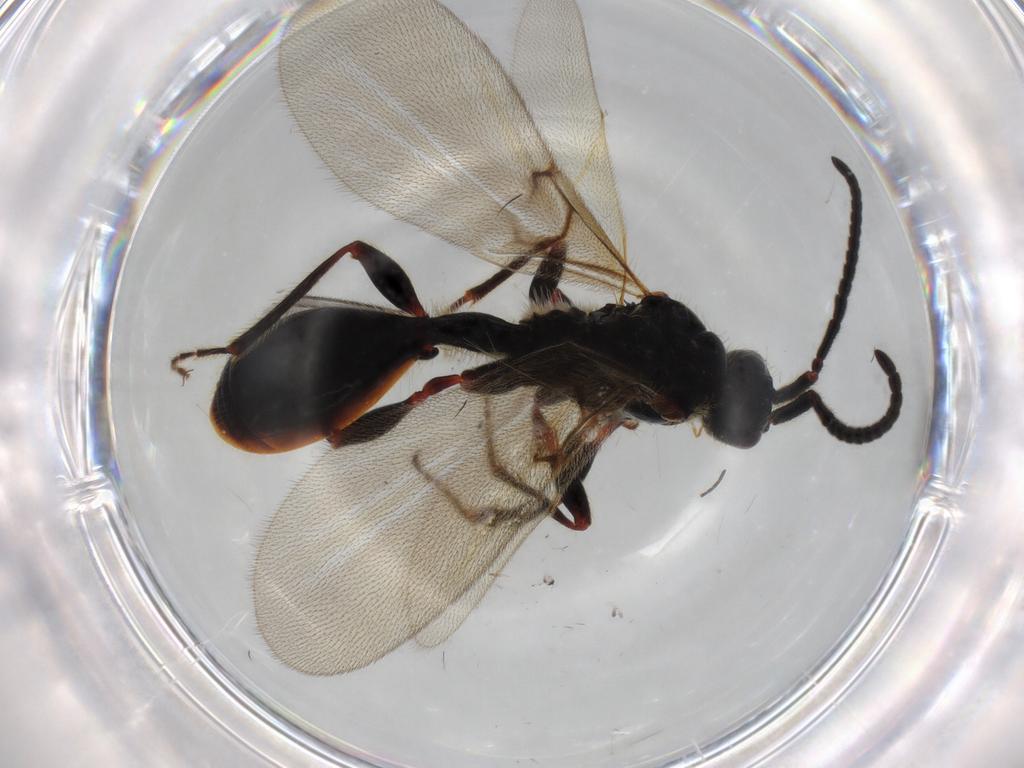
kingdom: Animalia
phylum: Arthropoda
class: Insecta
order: Hymenoptera
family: Diapriidae
